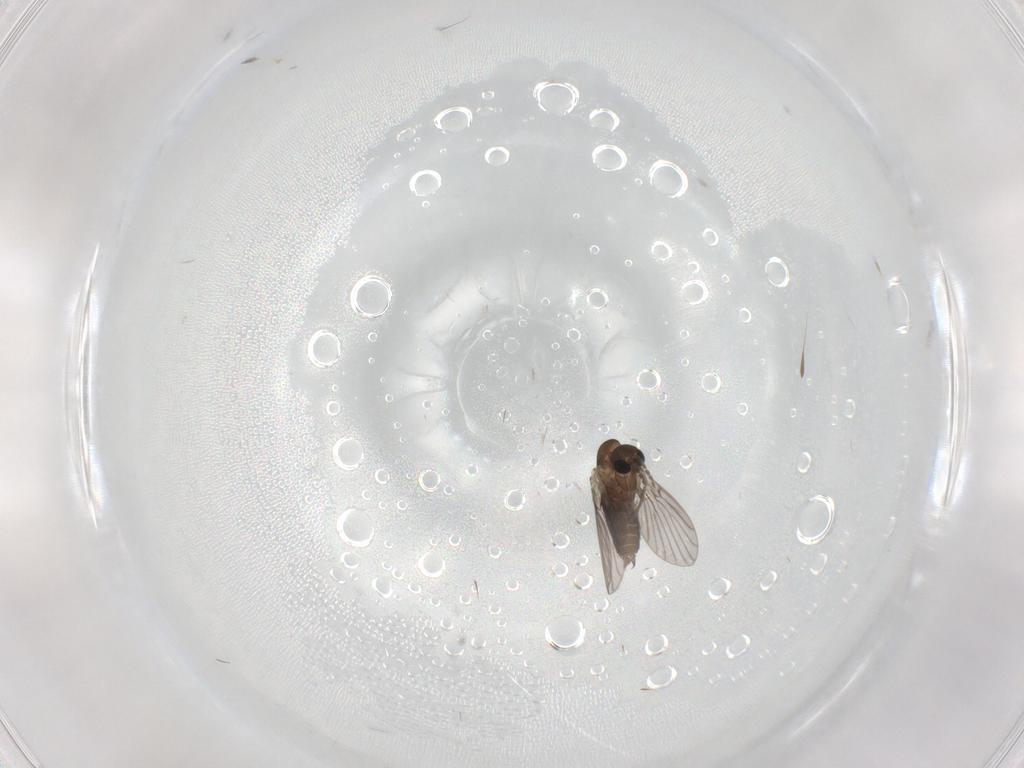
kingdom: Animalia
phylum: Arthropoda
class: Insecta
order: Diptera
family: Cecidomyiidae
